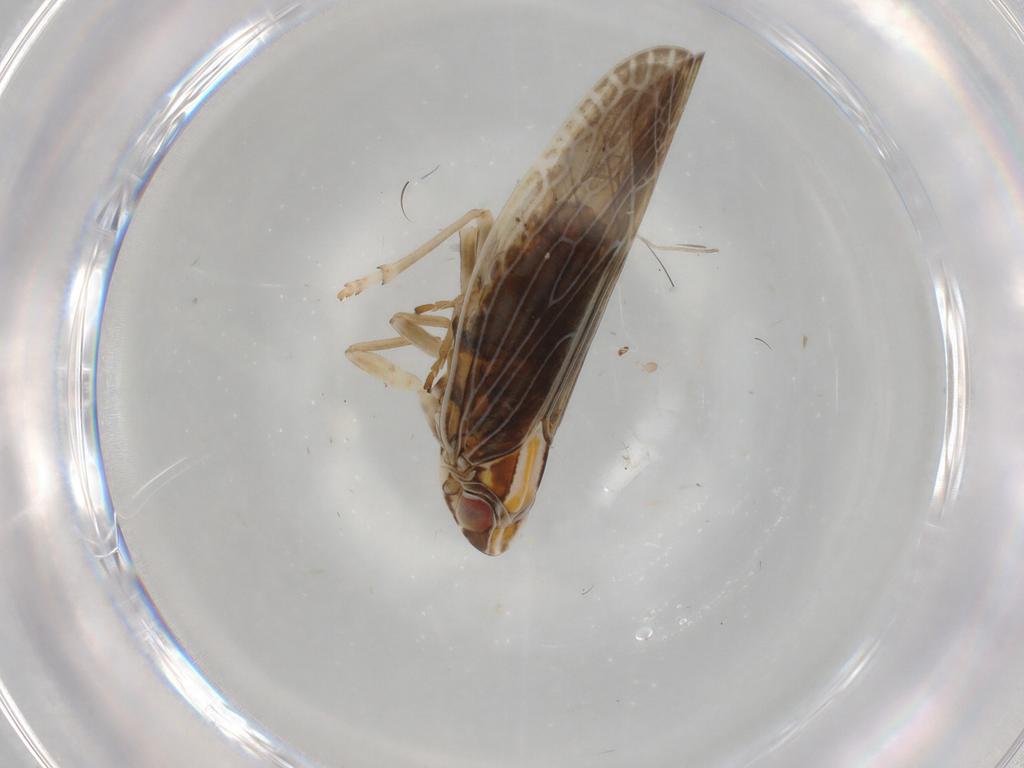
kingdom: Animalia
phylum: Arthropoda
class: Insecta
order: Hemiptera
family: Achilidae
